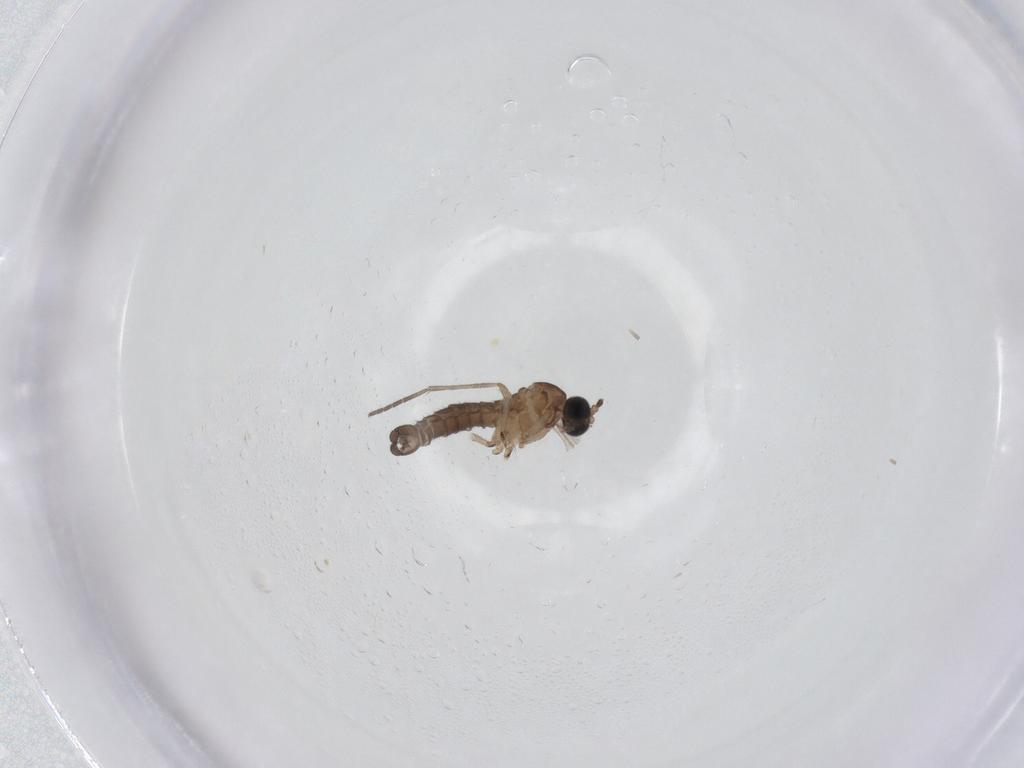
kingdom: Animalia
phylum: Arthropoda
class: Insecta
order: Diptera
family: Sciaridae
